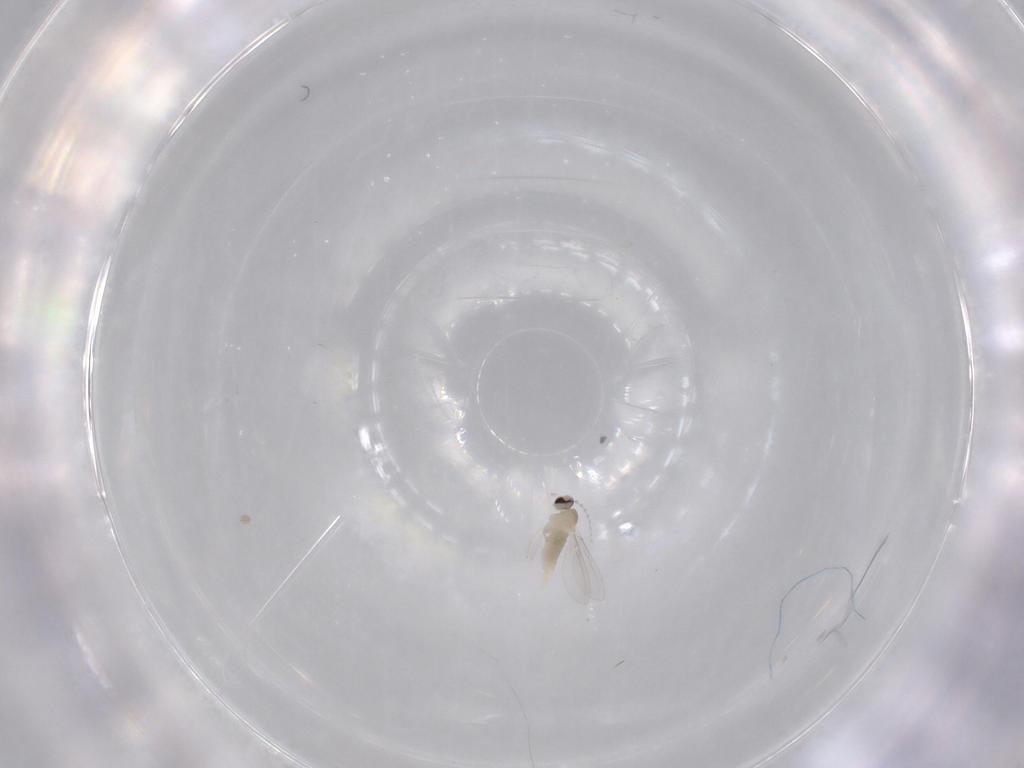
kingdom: Animalia
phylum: Arthropoda
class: Insecta
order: Diptera
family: Cecidomyiidae
